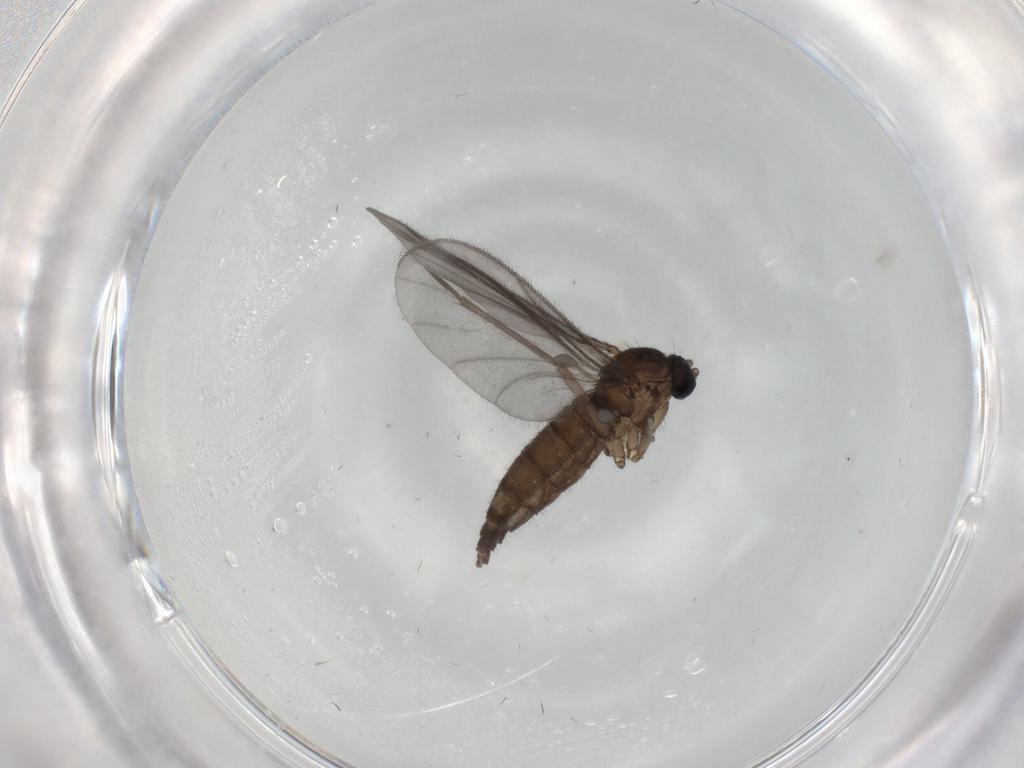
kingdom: Animalia
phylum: Arthropoda
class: Insecta
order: Diptera
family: Sciaridae
